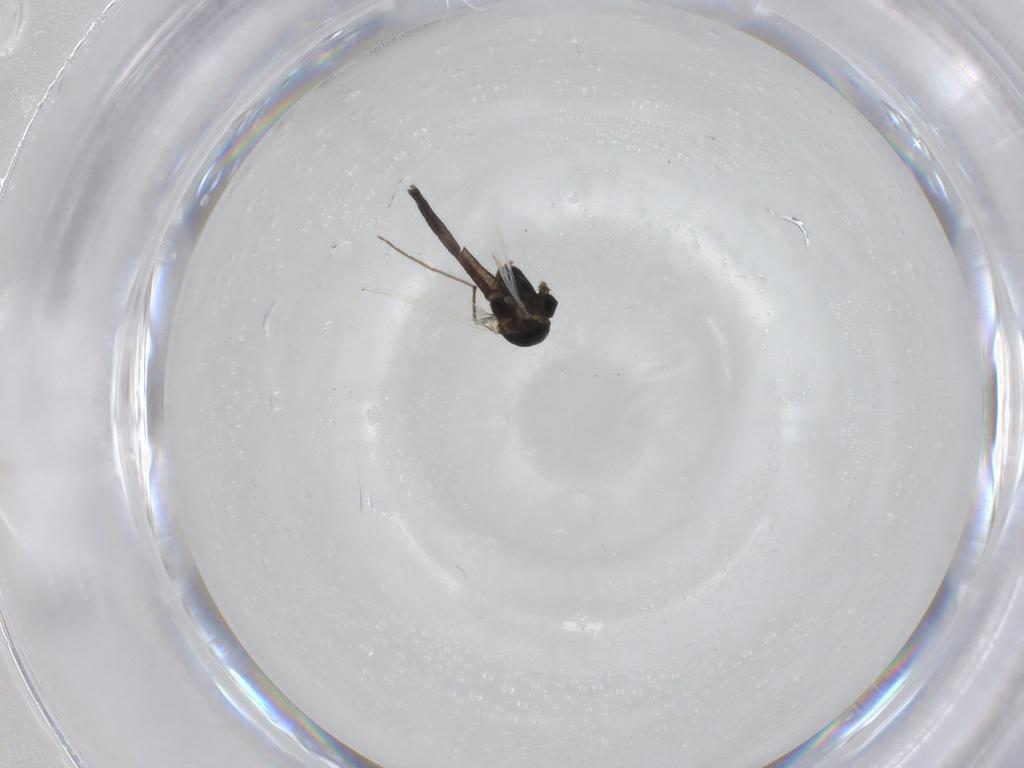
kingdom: Animalia
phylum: Arthropoda
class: Insecta
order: Diptera
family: Chironomidae
